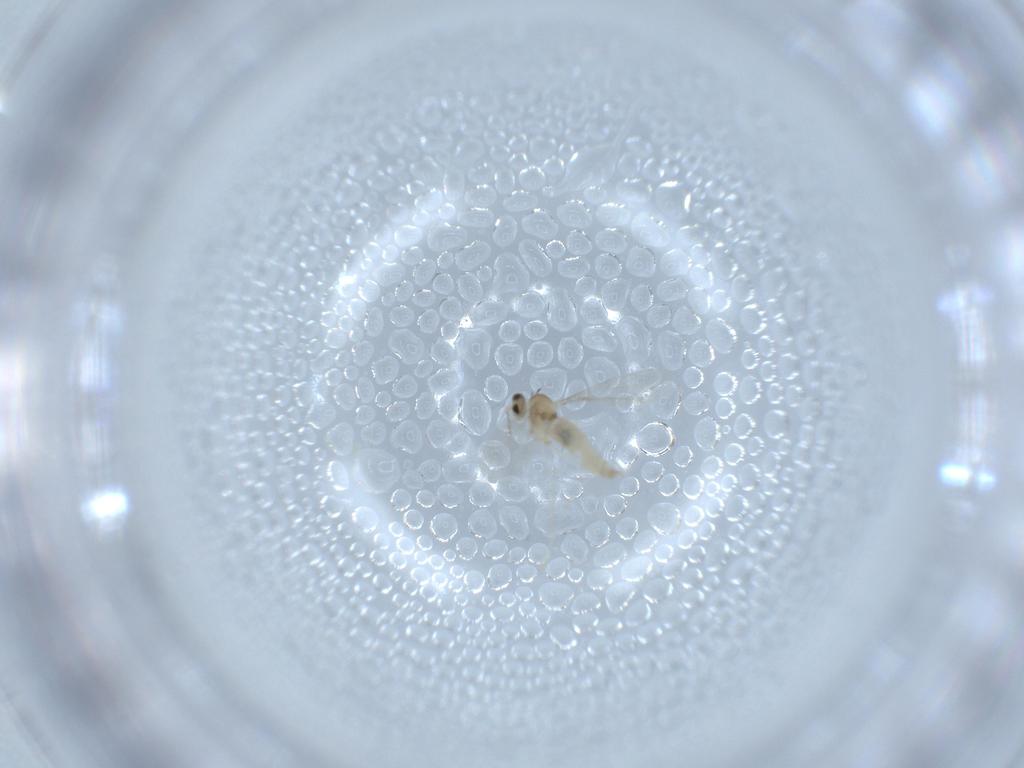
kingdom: Animalia
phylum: Arthropoda
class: Insecta
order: Diptera
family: Cecidomyiidae
